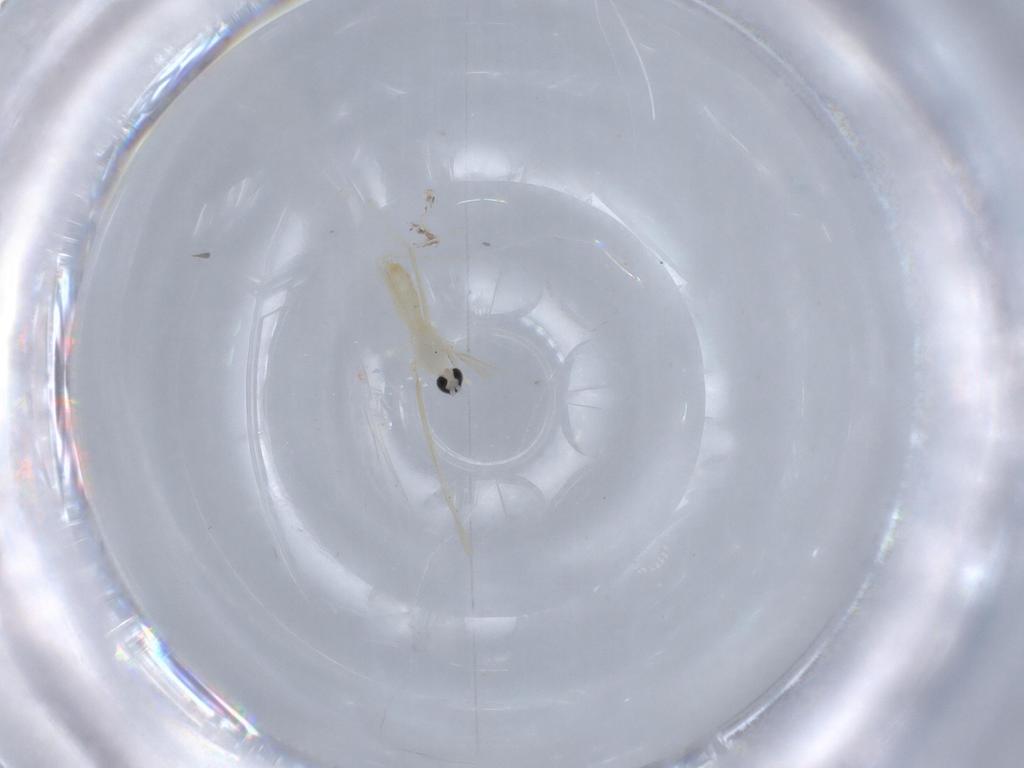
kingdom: Animalia
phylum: Arthropoda
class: Insecta
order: Diptera
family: Cecidomyiidae
